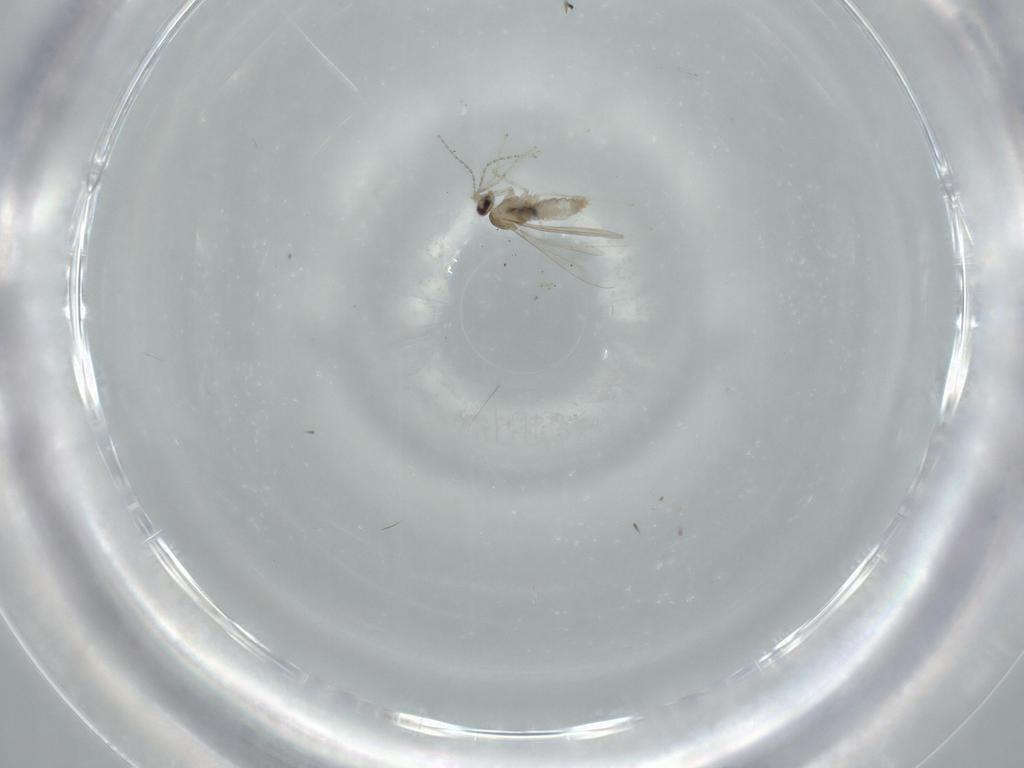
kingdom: Animalia
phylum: Arthropoda
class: Insecta
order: Diptera
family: Cecidomyiidae
